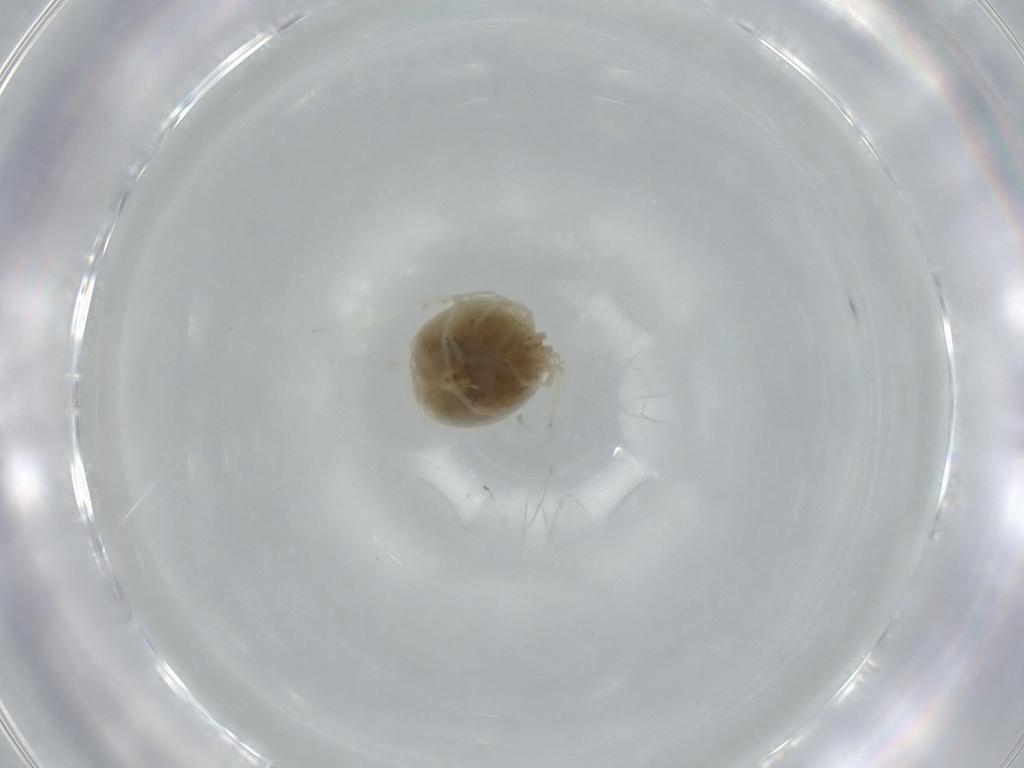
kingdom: Animalia
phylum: Arthropoda
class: Arachnida
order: Trombidiformes
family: Hygrobatidae
